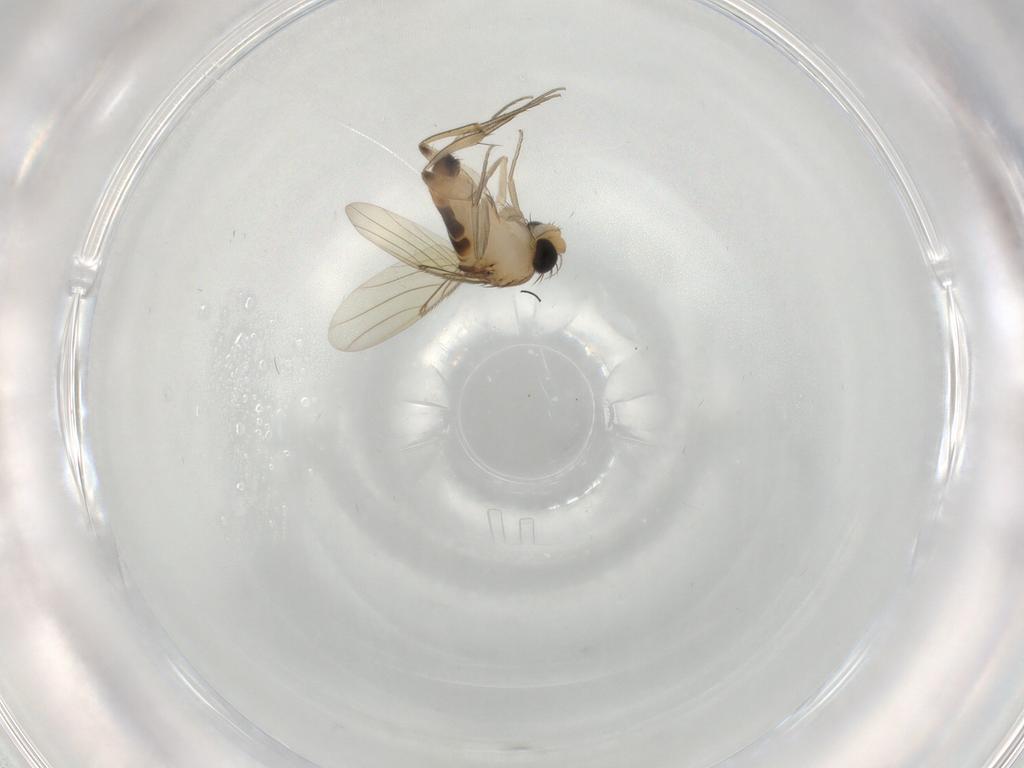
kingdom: Animalia
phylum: Arthropoda
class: Insecta
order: Diptera
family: Phoridae
